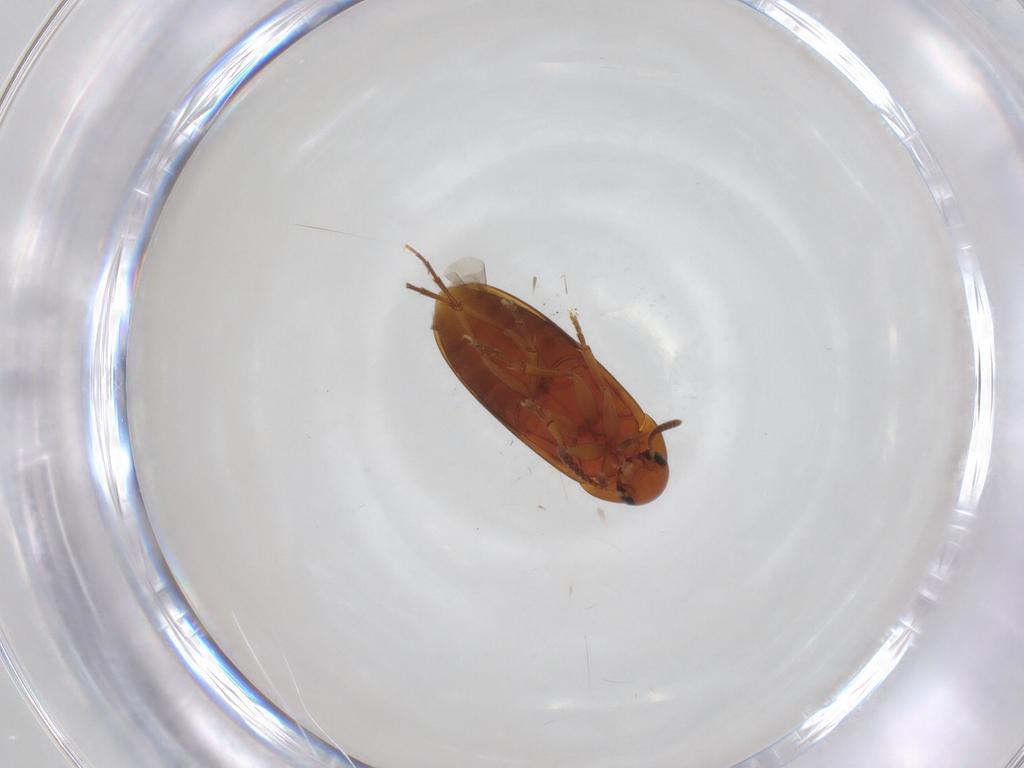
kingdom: Animalia
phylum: Arthropoda
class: Insecta
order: Coleoptera
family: Scraptiidae
